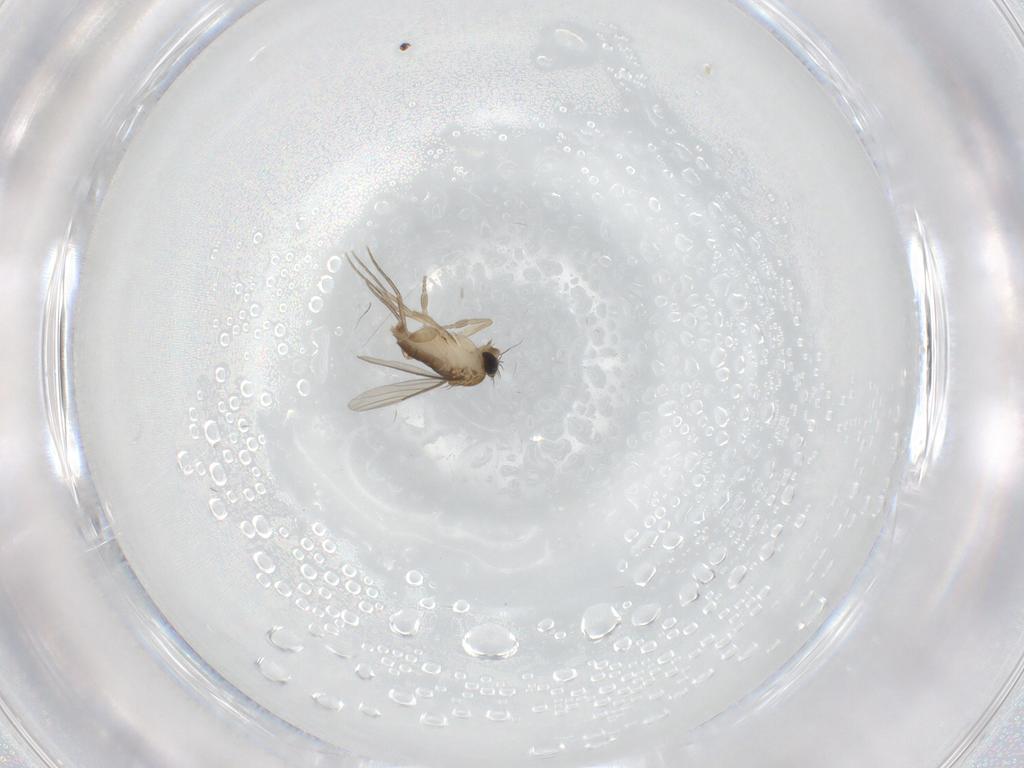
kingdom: Animalia
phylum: Arthropoda
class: Insecta
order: Diptera
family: Phoridae
